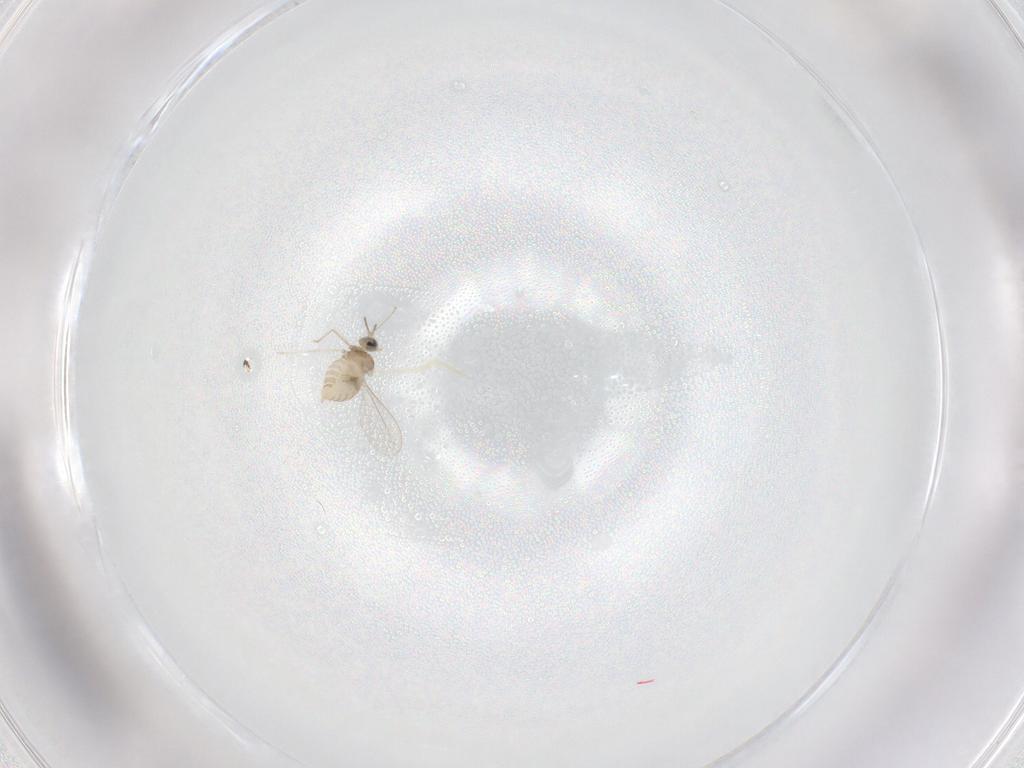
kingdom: Animalia
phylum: Arthropoda
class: Insecta
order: Diptera
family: Cecidomyiidae
